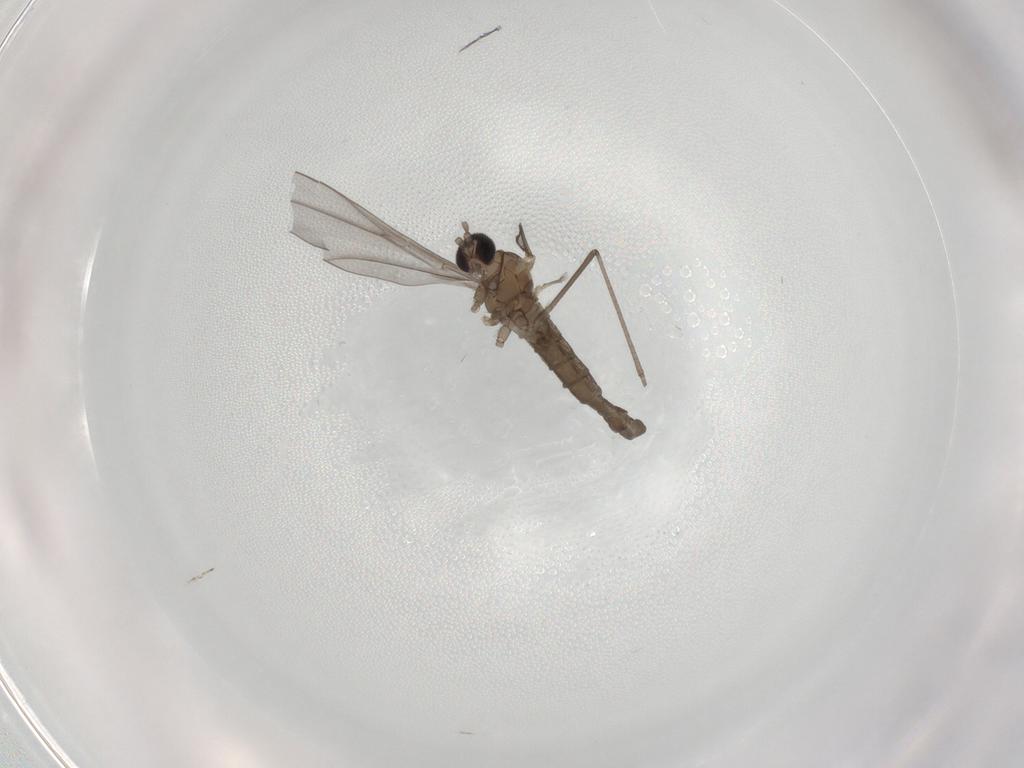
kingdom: Animalia
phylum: Arthropoda
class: Insecta
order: Diptera
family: Cecidomyiidae
